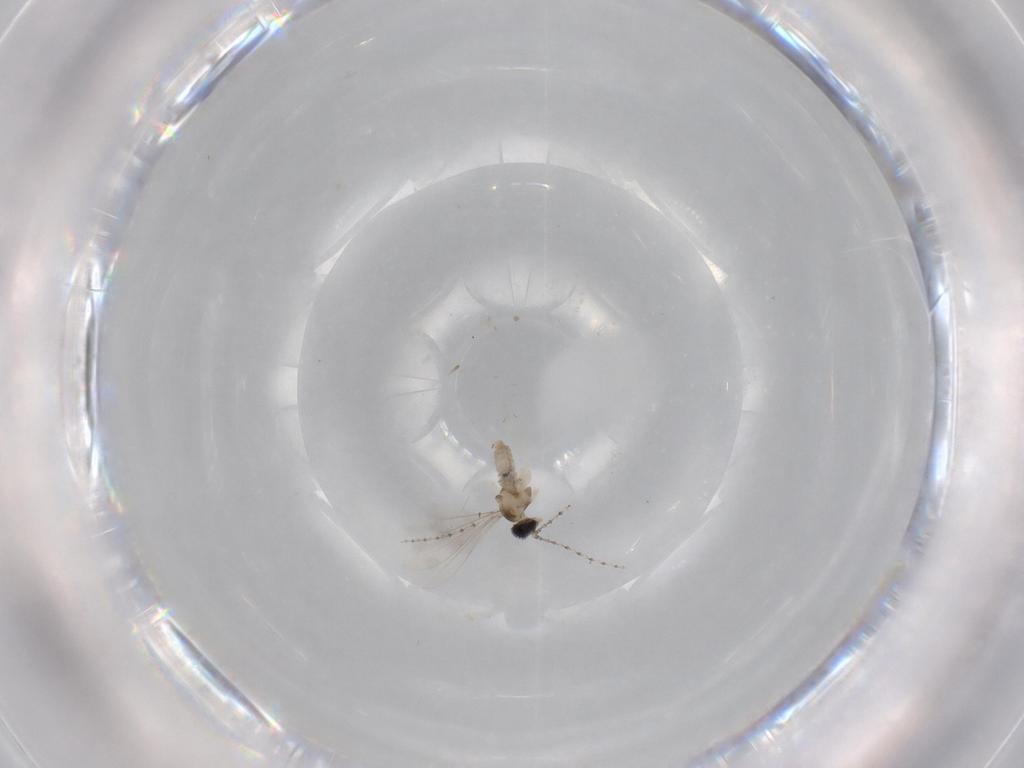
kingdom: Animalia
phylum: Arthropoda
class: Insecta
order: Diptera
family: Cecidomyiidae
